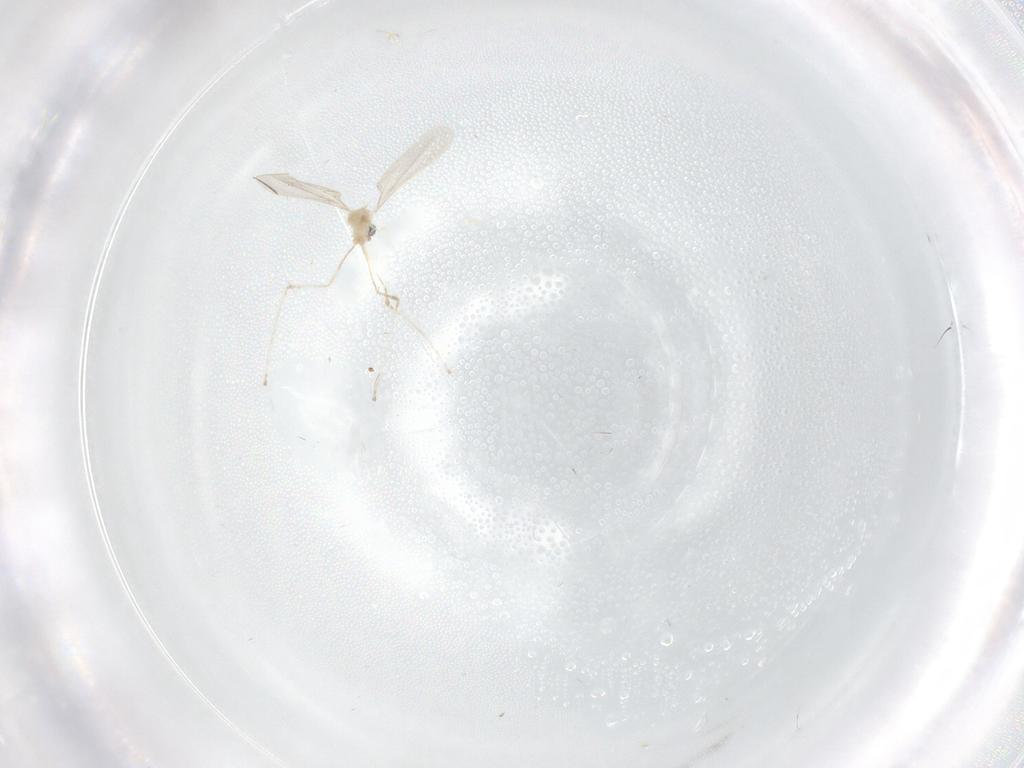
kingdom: Animalia
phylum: Arthropoda
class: Insecta
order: Diptera
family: Cecidomyiidae
